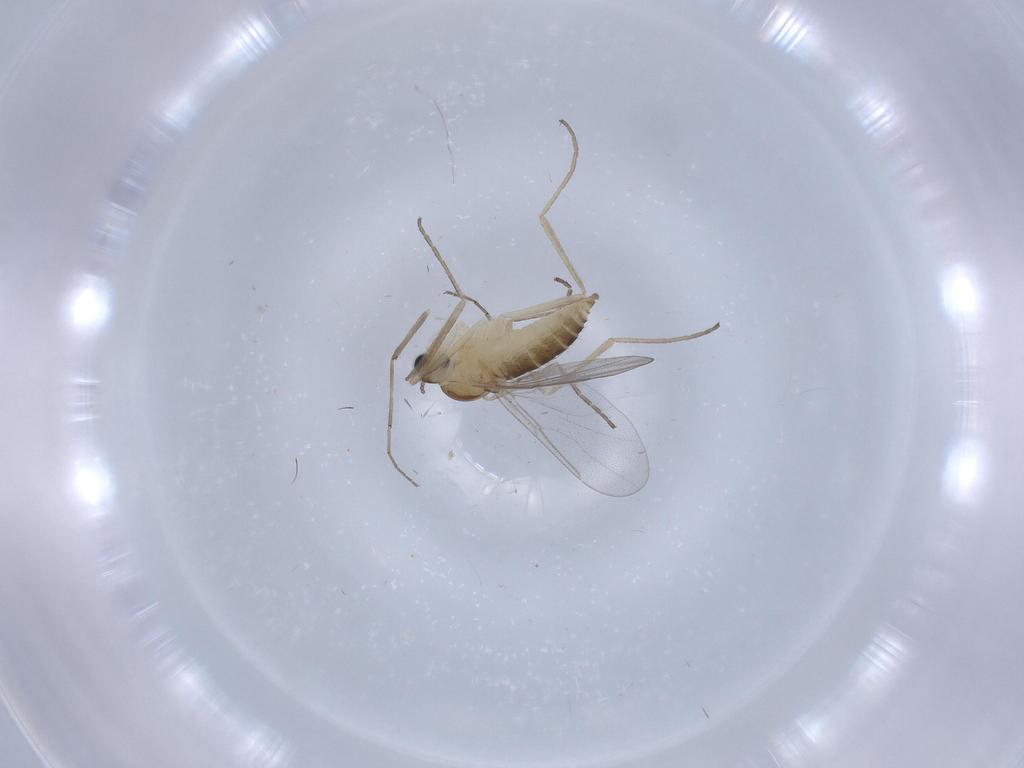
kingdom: Animalia
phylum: Arthropoda
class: Insecta
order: Diptera
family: Cecidomyiidae
